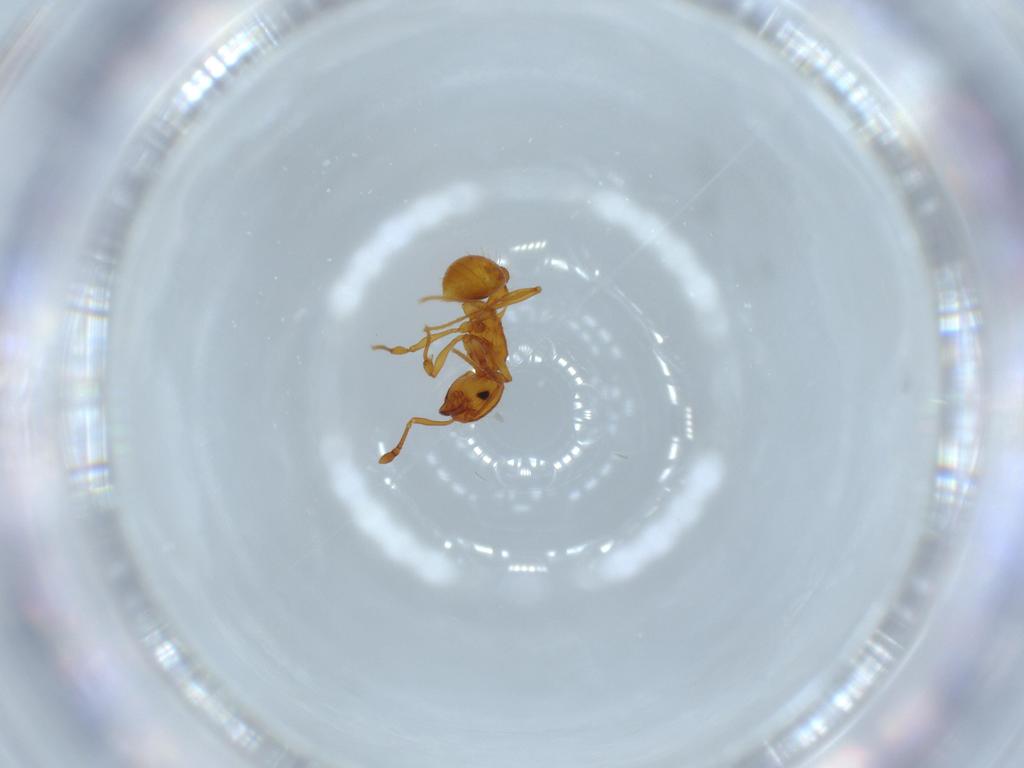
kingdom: Animalia
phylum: Arthropoda
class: Insecta
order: Hymenoptera
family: Formicidae
